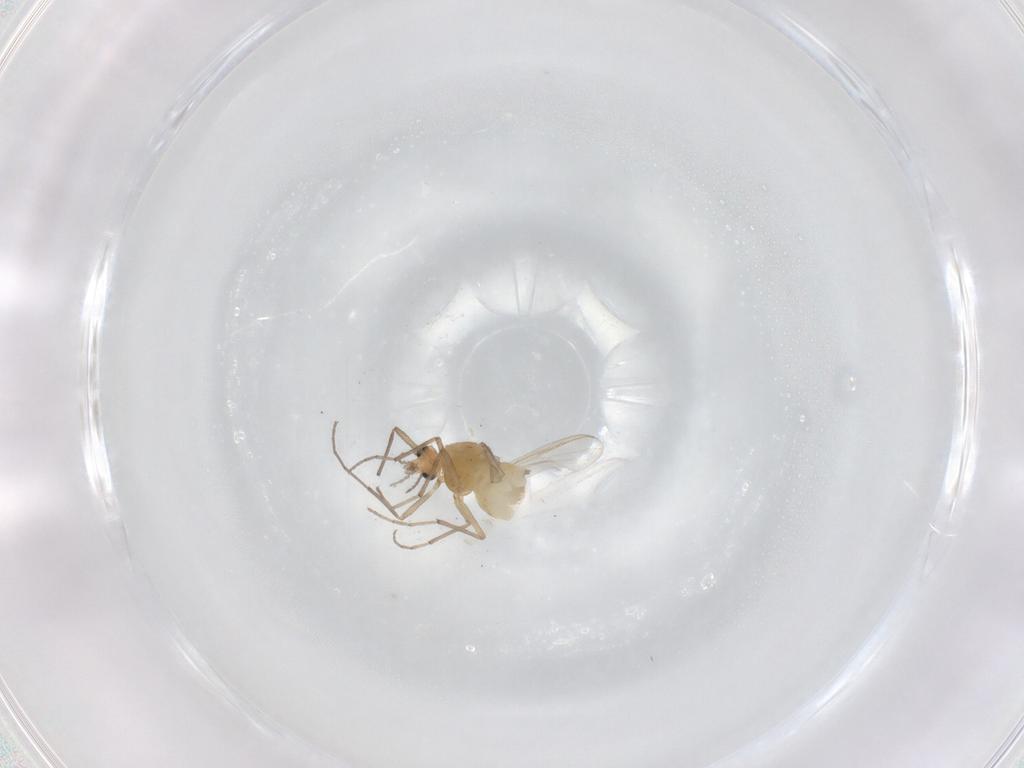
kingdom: Animalia
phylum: Arthropoda
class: Insecta
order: Diptera
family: Chironomidae
